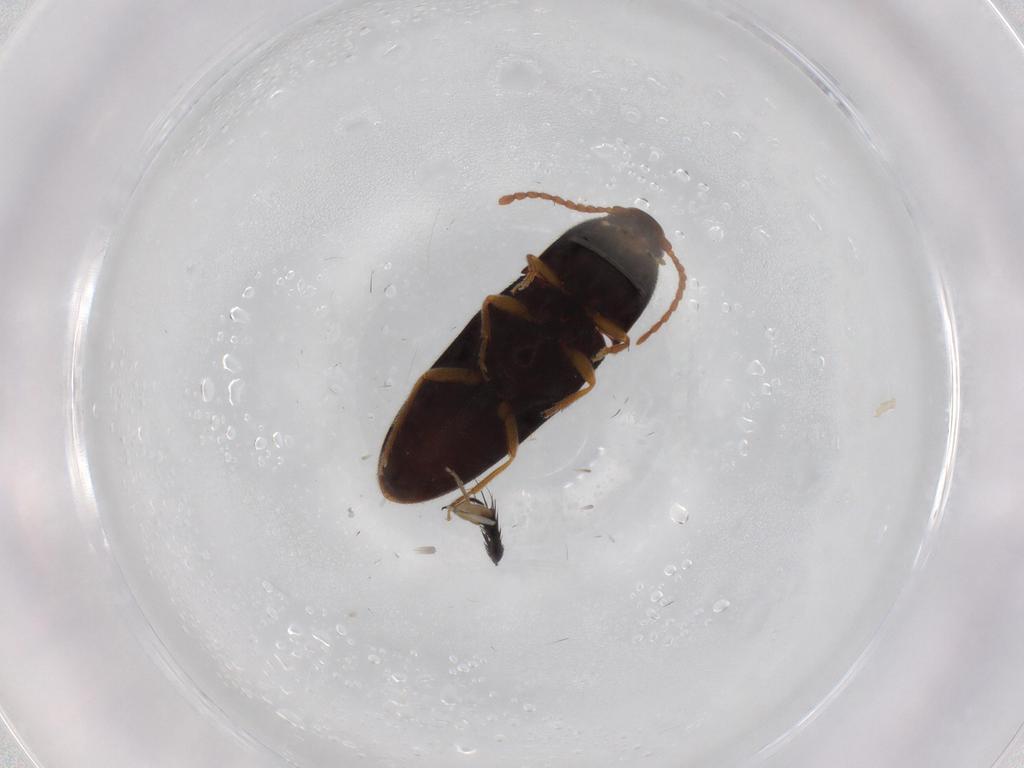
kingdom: Animalia
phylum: Arthropoda
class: Insecta
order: Coleoptera
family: Elateridae
